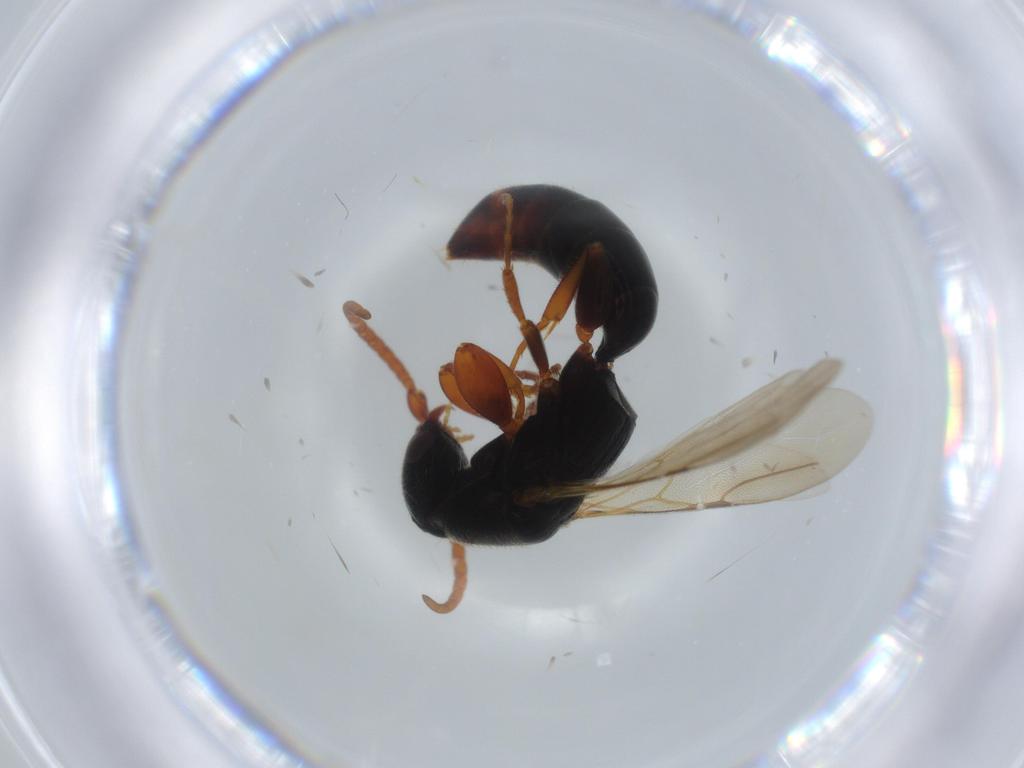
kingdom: Animalia
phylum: Arthropoda
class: Insecta
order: Hymenoptera
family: Bethylidae
